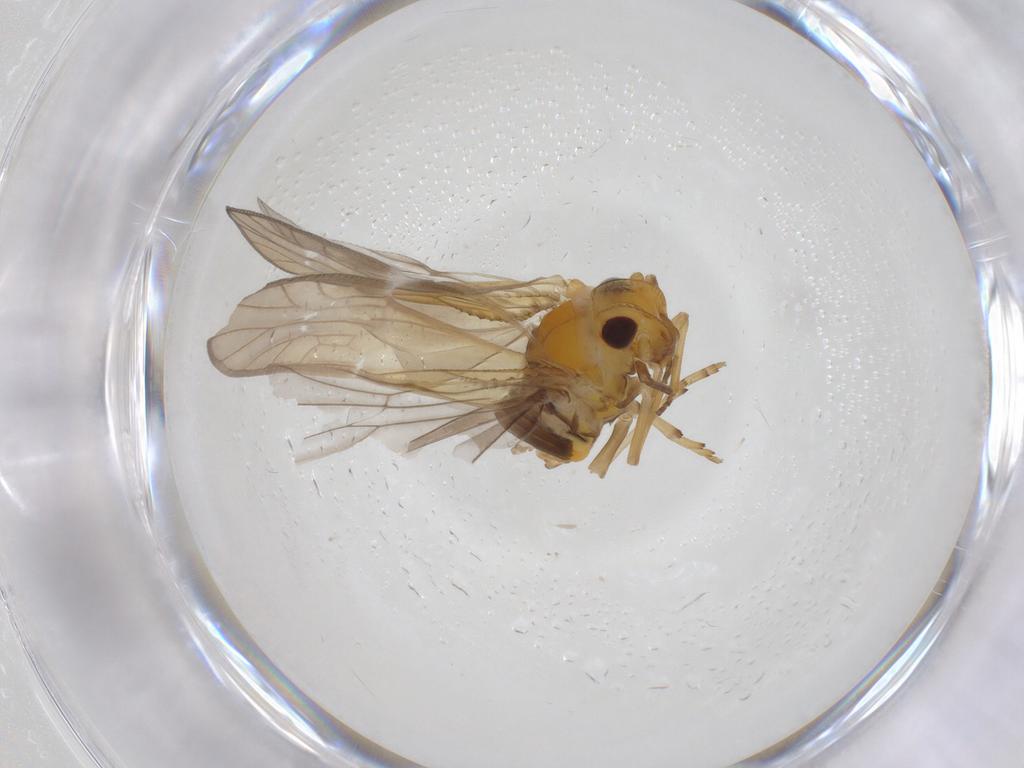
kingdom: Animalia
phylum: Arthropoda
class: Insecta
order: Hemiptera
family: Meenoplidae
